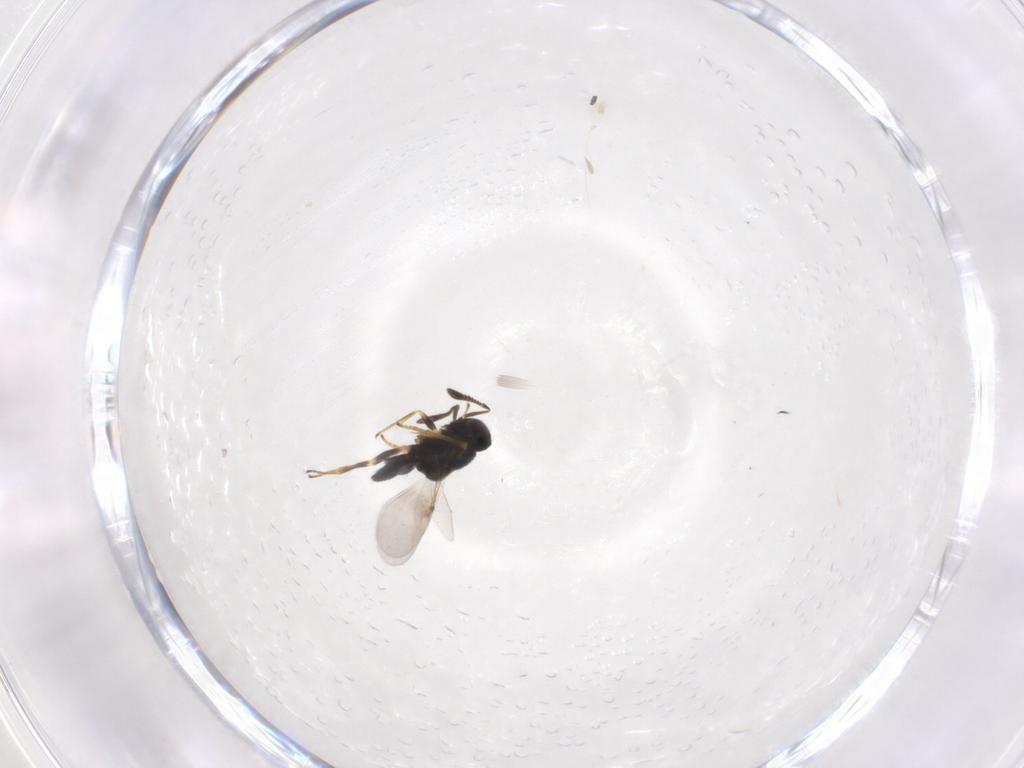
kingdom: Animalia
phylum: Arthropoda
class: Insecta
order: Hymenoptera
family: Encyrtidae
